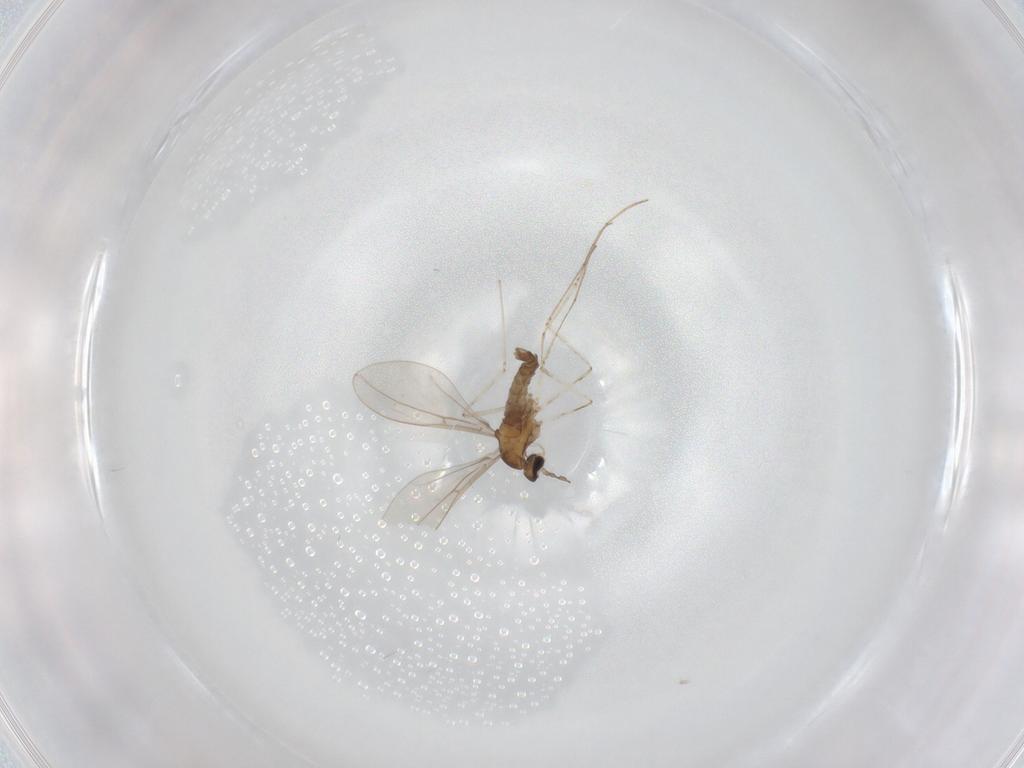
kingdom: Animalia
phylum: Arthropoda
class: Insecta
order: Diptera
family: Cecidomyiidae
